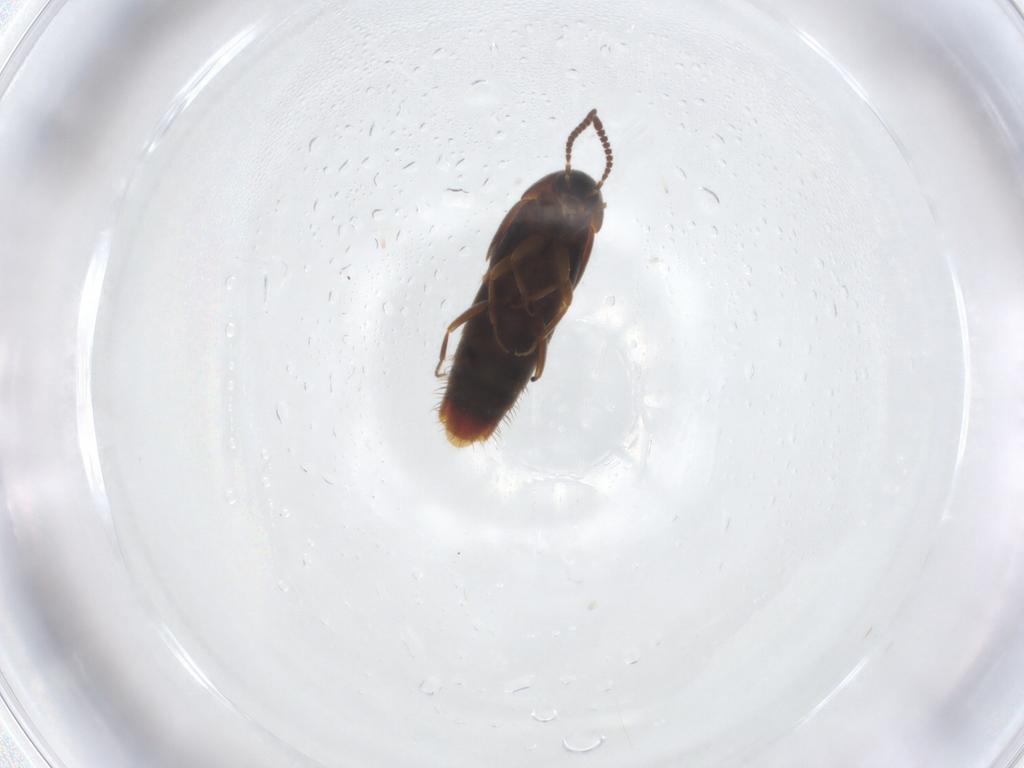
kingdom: Animalia
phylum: Arthropoda
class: Insecta
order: Coleoptera
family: Staphylinidae
